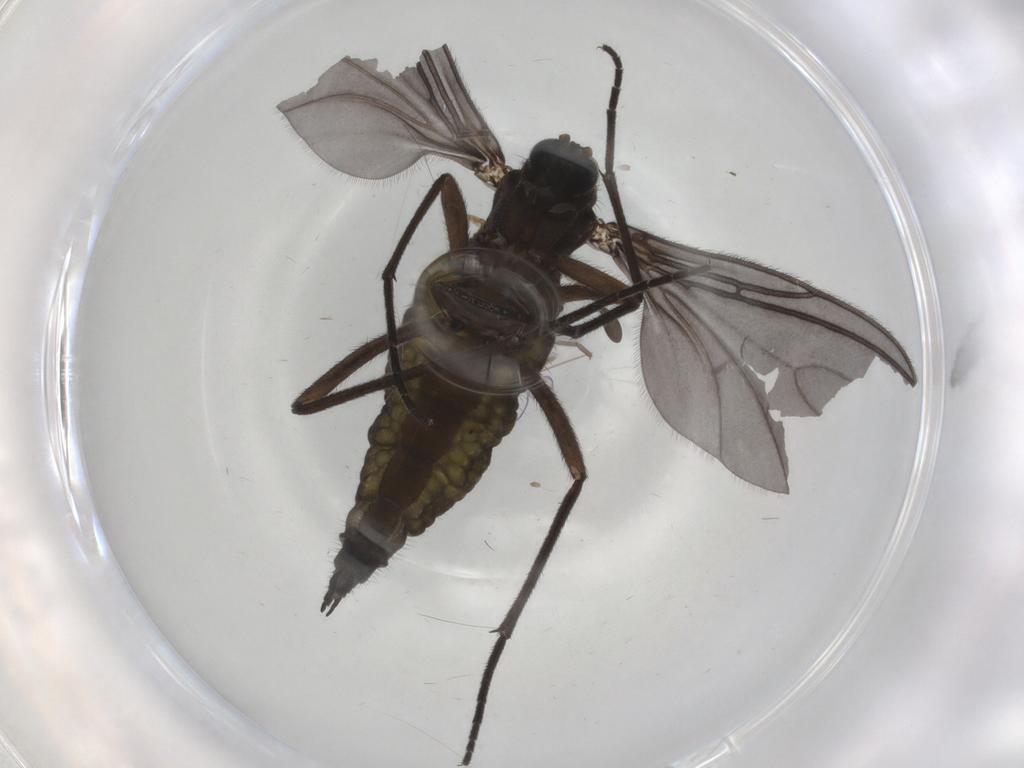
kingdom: Animalia
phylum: Arthropoda
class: Insecta
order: Diptera
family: Sciaridae
